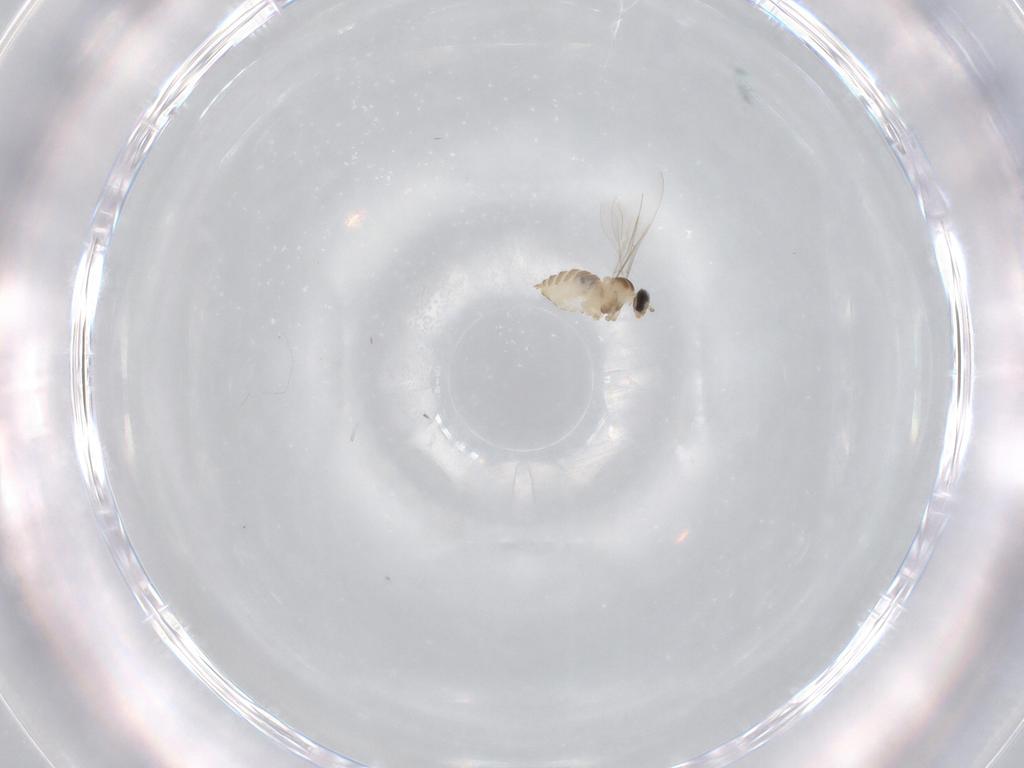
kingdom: Animalia
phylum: Arthropoda
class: Insecta
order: Diptera
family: Cecidomyiidae
